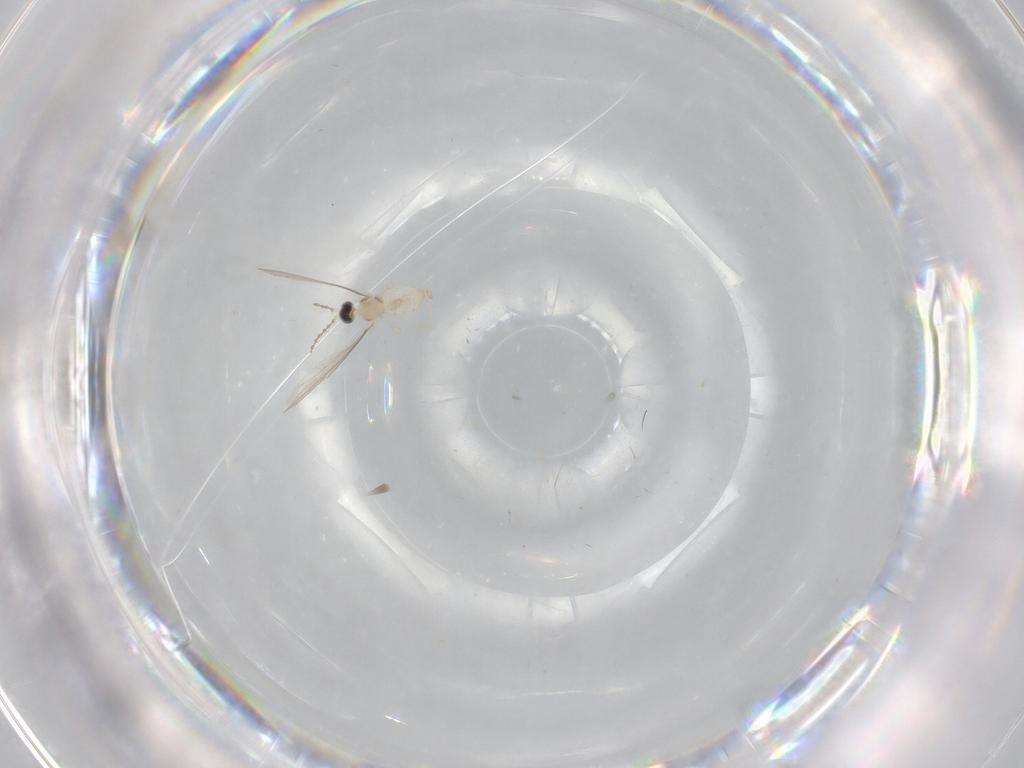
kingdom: Animalia
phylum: Arthropoda
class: Insecta
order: Diptera
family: Cecidomyiidae
